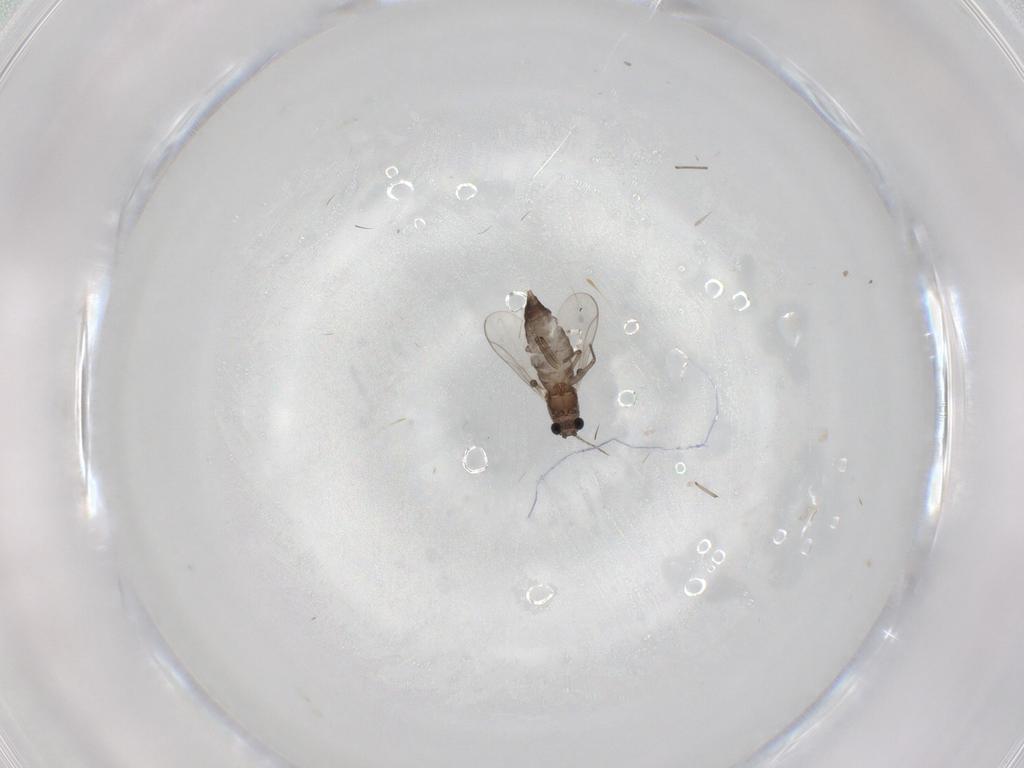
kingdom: Animalia
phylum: Arthropoda
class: Insecta
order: Diptera
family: Chironomidae
